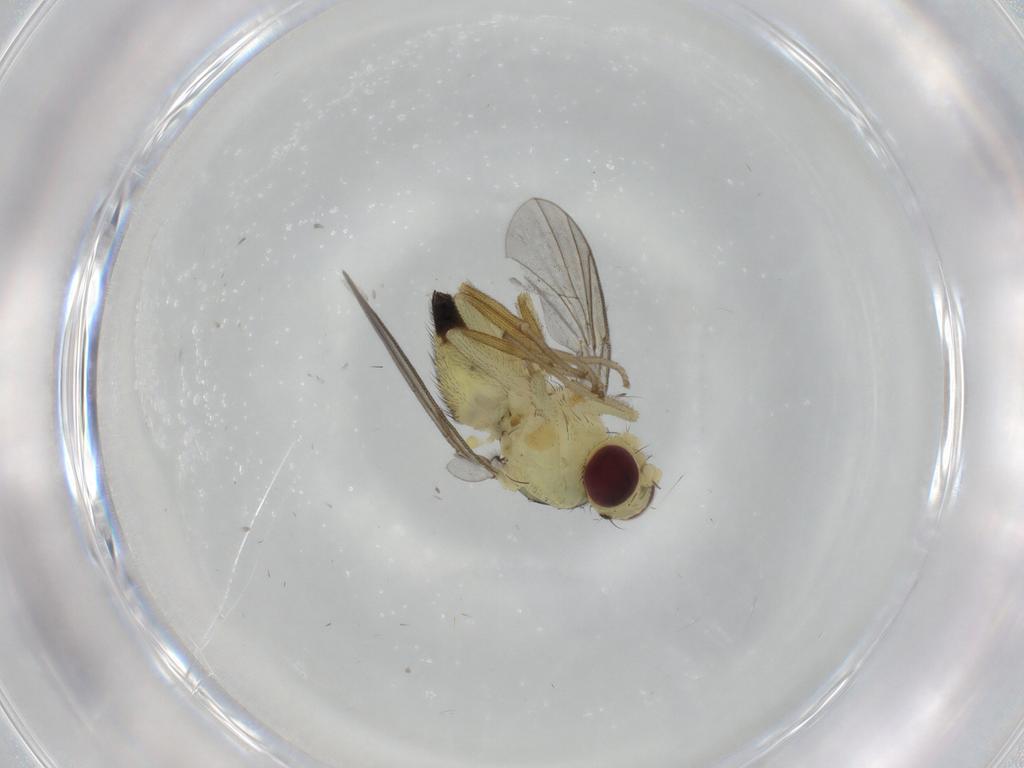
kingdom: Animalia
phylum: Arthropoda
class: Insecta
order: Diptera
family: Agromyzidae
